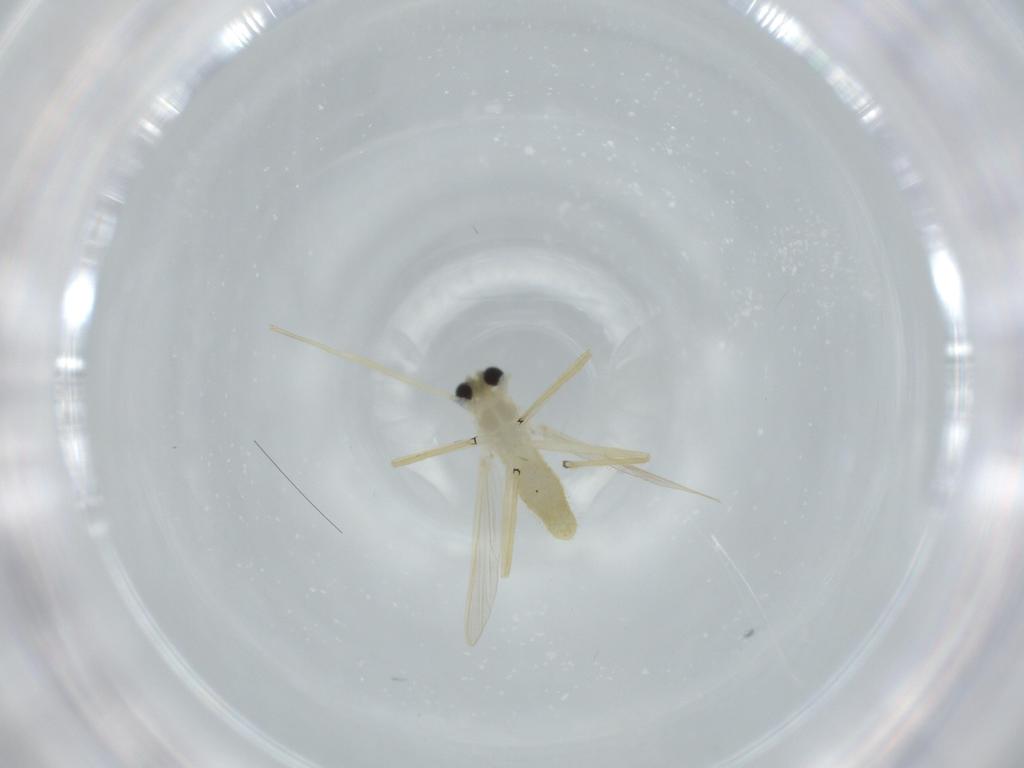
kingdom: Animalia
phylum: Arthropoda
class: Insecta
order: Diptera
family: Chironomidae
